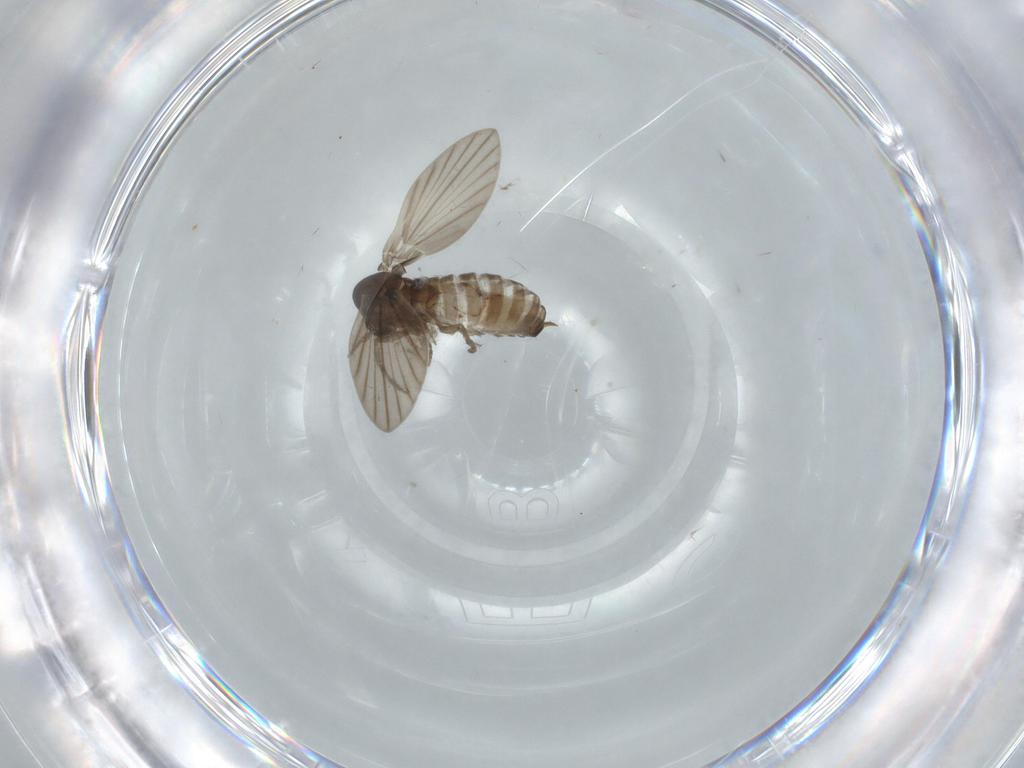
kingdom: Animalia
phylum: Arthropoda
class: Insecta
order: Diptera
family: Psychodidae
